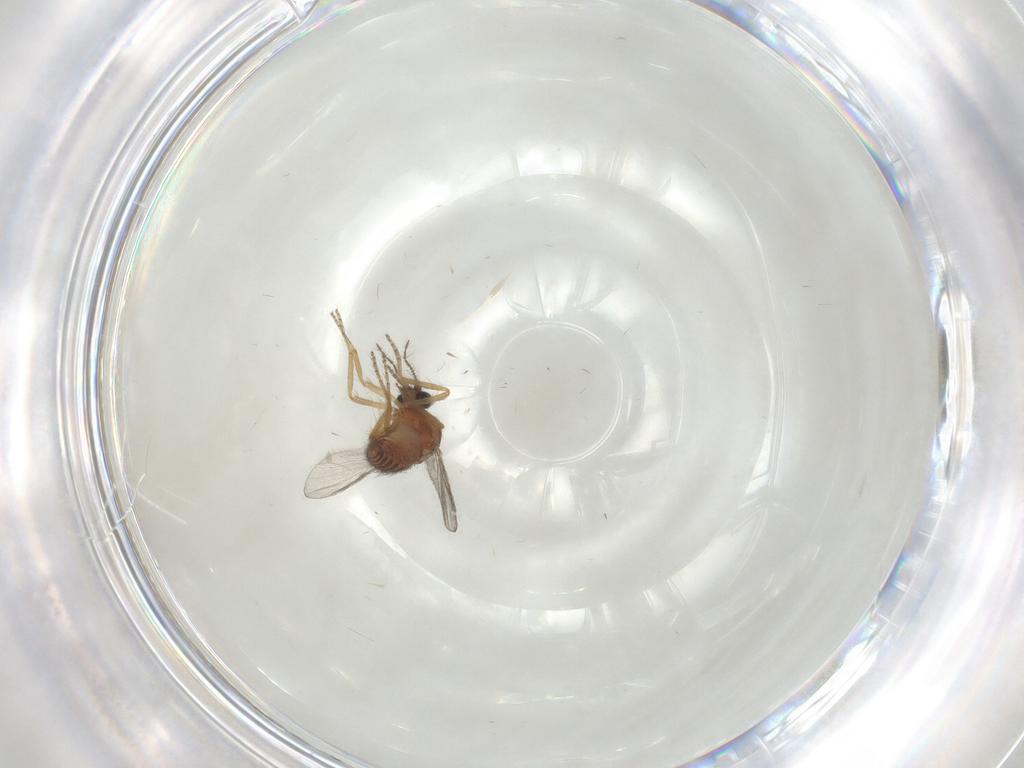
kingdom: Animalia
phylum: Arthropoda
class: Insecta
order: Diptera
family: Ceratopogonidae
